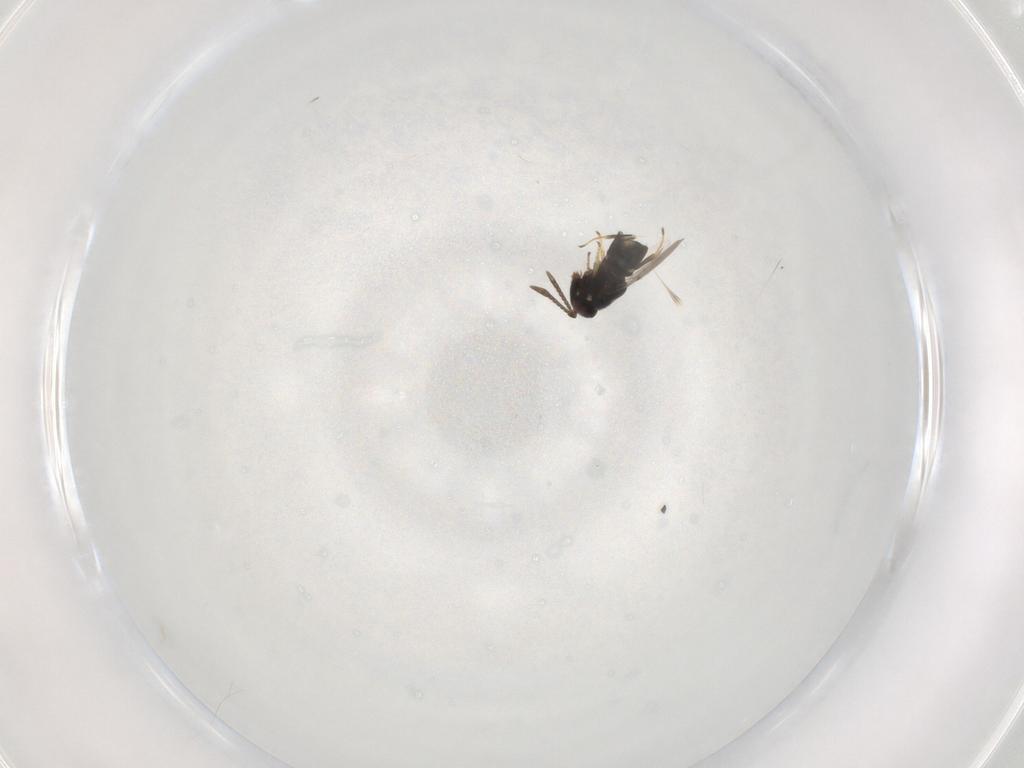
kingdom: Animalia
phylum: Arthropoda
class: Insecta
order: Hymenoptera
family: Encyrtidae
